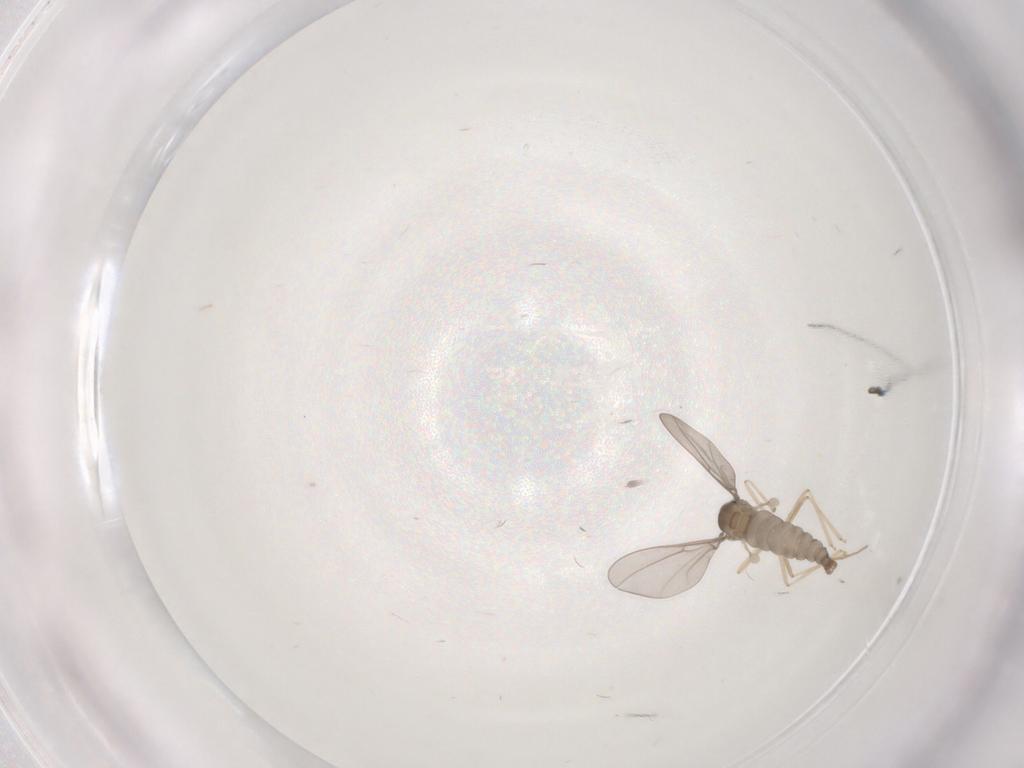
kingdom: Animalia
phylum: Arthropoda
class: Insecta
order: Diptera
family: Cecidomyiidae
